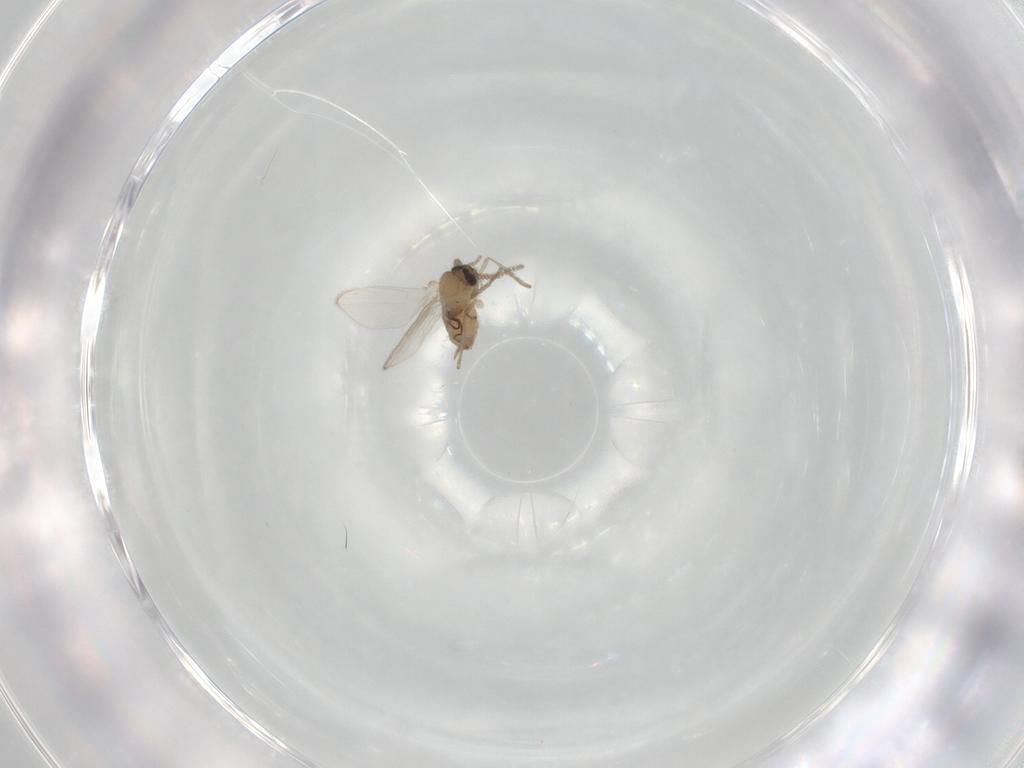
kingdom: Animalia
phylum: Arthropoda
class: Insecta
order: Diptera
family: Psychodidae
